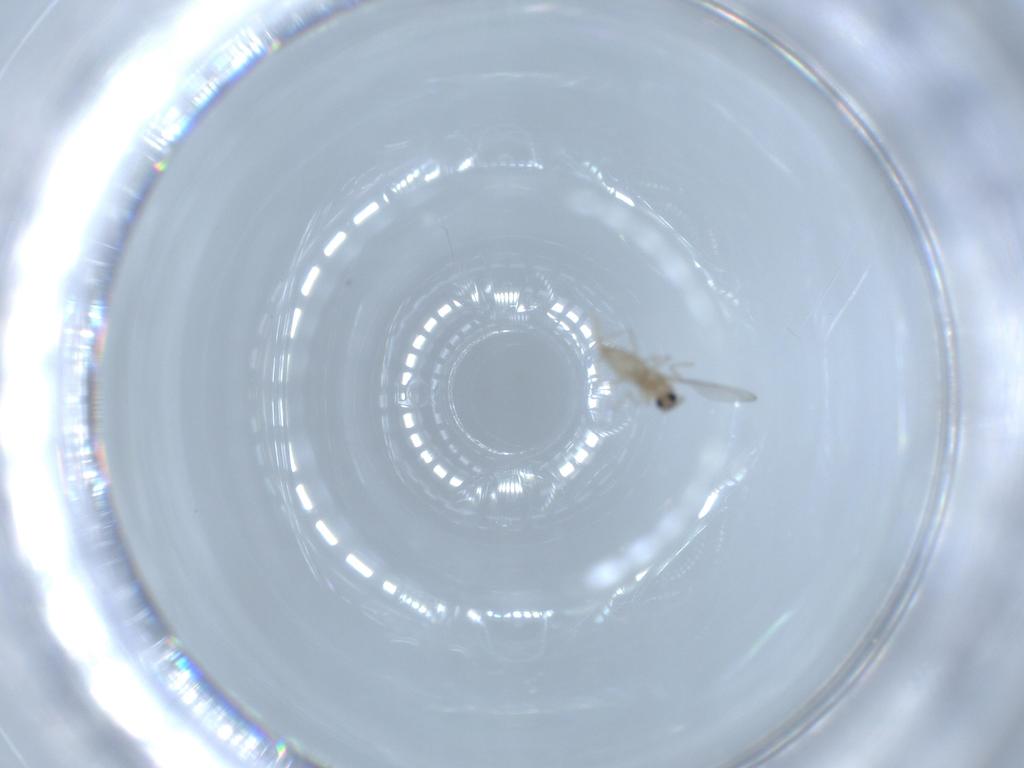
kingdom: Animalia
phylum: Arthropoda
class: Insecta
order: Diptera
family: Cecidomyiidae
